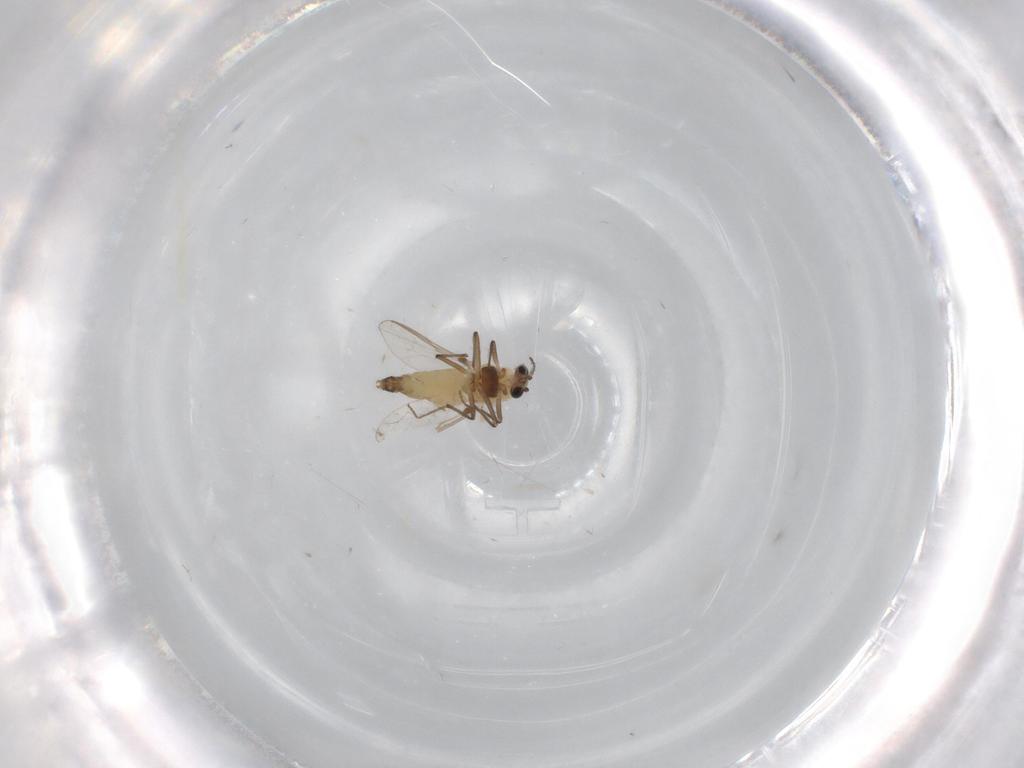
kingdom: Animalia
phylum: Arthropoda
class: Insecta
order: Diptera
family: Chironomidae
